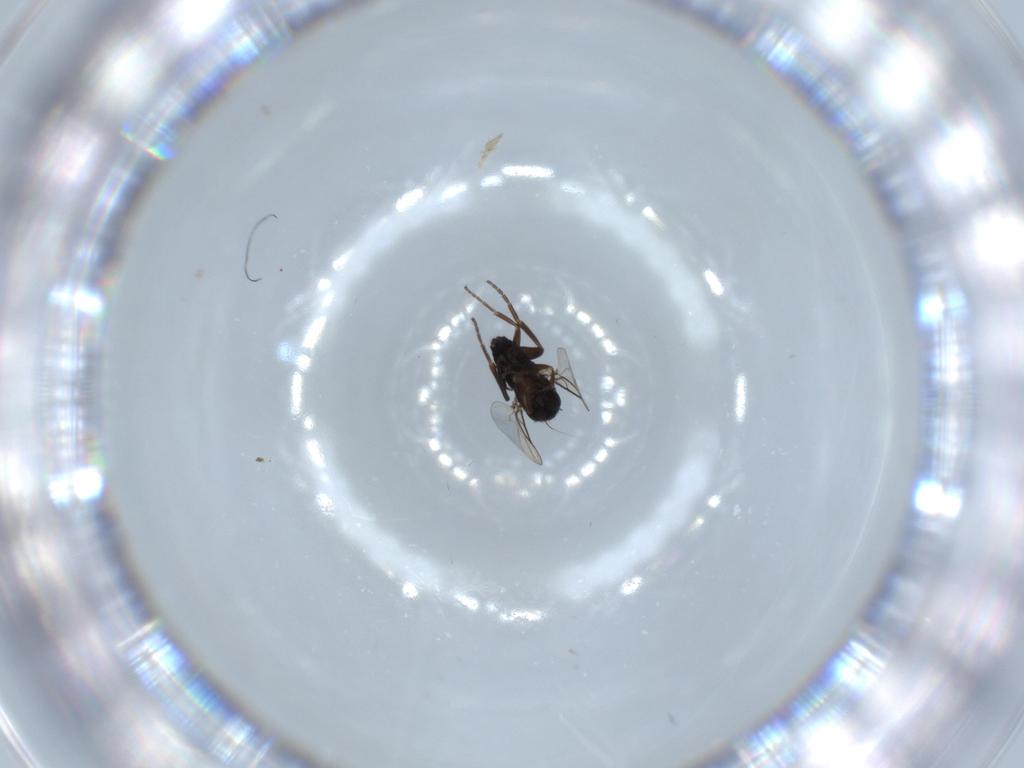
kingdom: Animalia
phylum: Arthropoda
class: Insecta
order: Diptera
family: Phoridae
